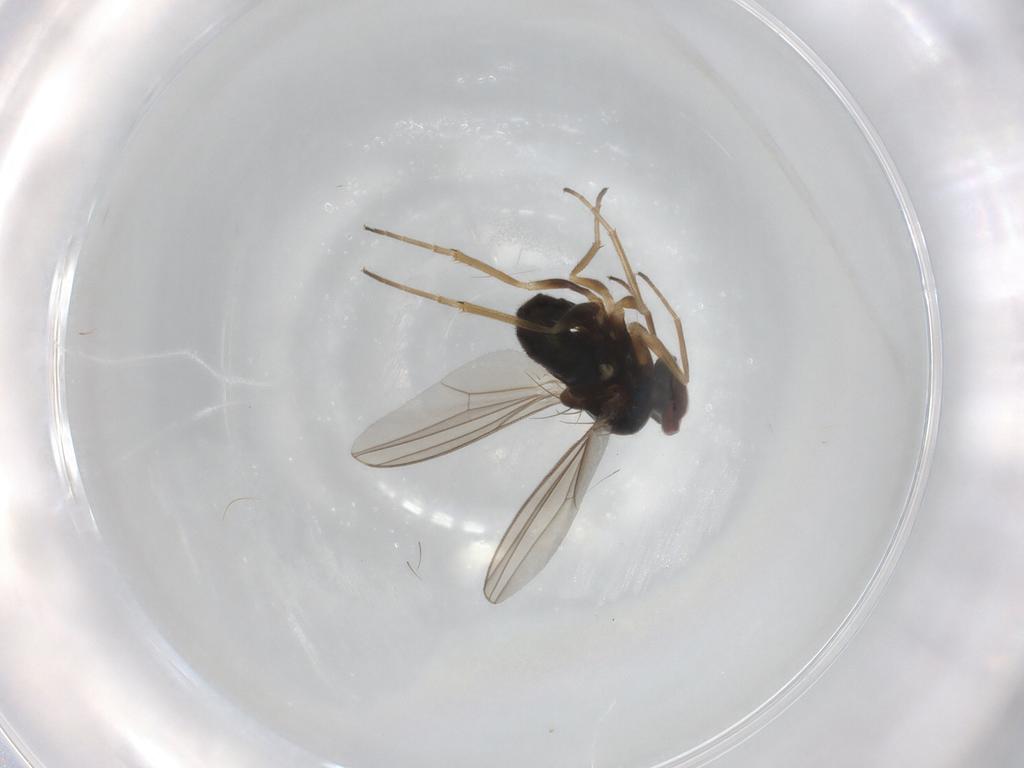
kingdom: Animalia
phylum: Arthropoda
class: Insecta
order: Diptera
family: Dolichopodidae
